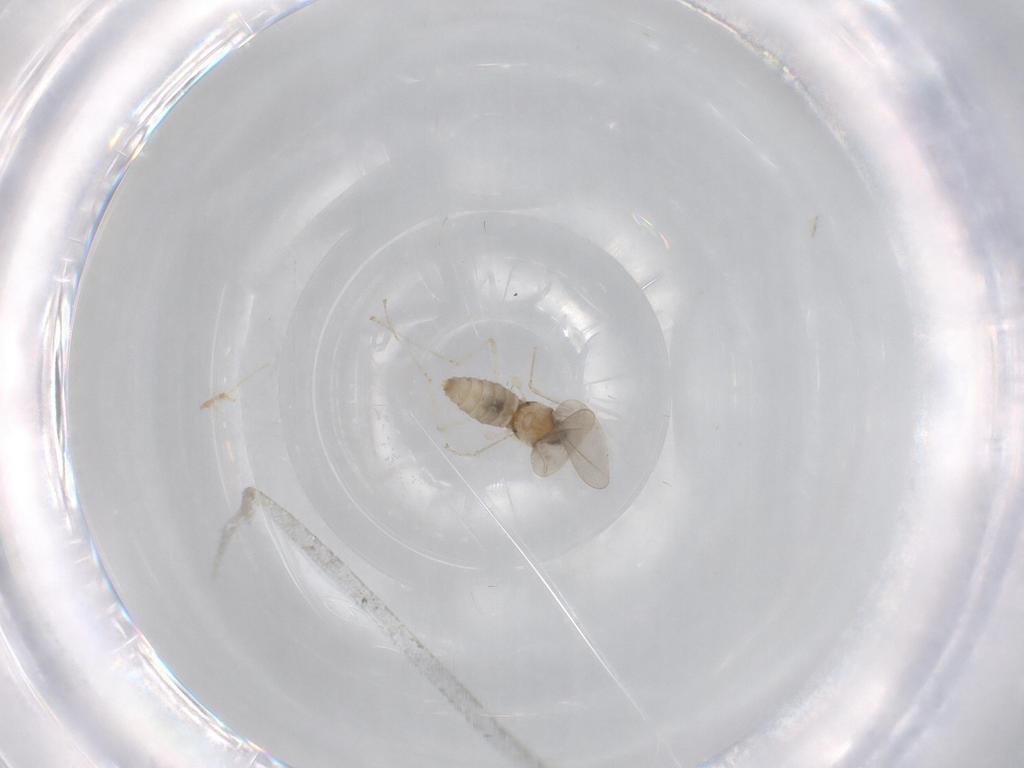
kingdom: Animalia
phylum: Arthropoda
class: Insecta
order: Diptera
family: Cecidomyiidae
